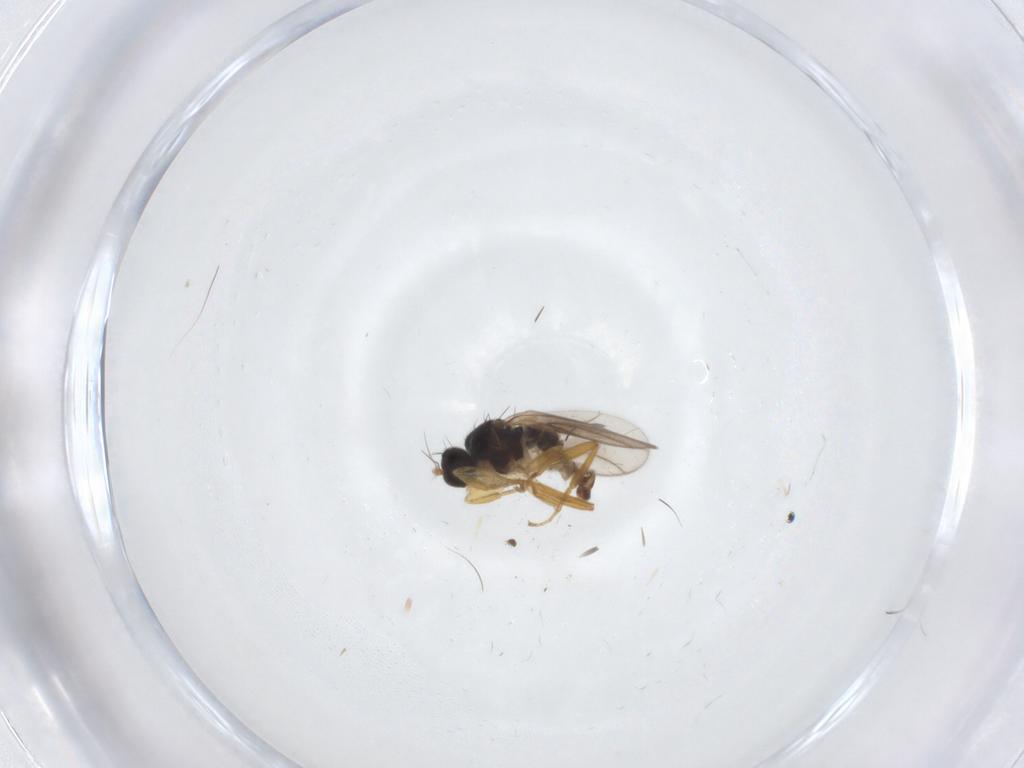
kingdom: Animalia
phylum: Arthropoda
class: Insecta
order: Diptera
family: Hybotidae
